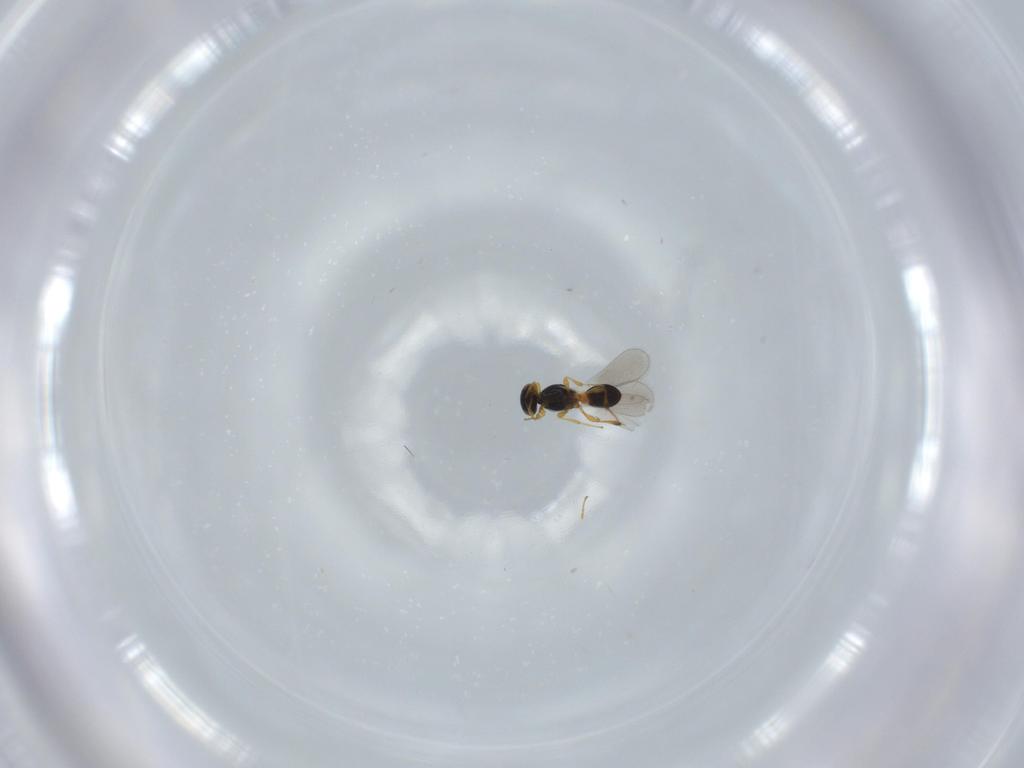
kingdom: Animalia
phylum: Arthropoda
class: Insecta
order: Hymenoptera
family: Platygastridae
